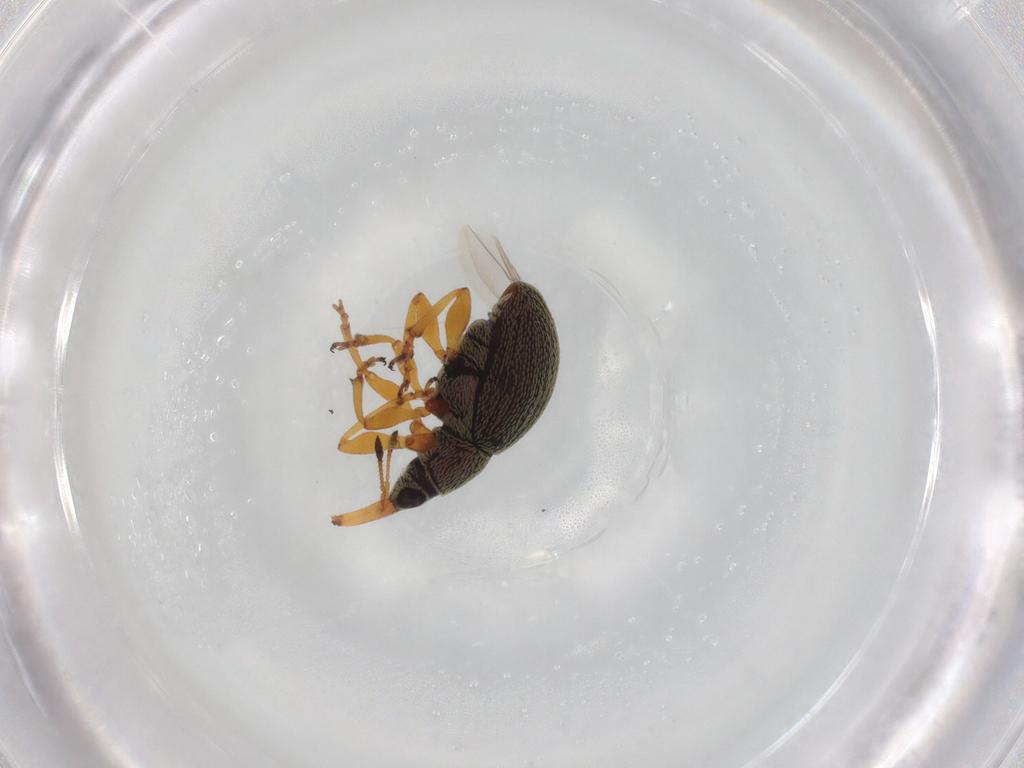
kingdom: Animalia
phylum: Arthropoda
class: Insecta
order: Coleoptera
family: Brentidae
